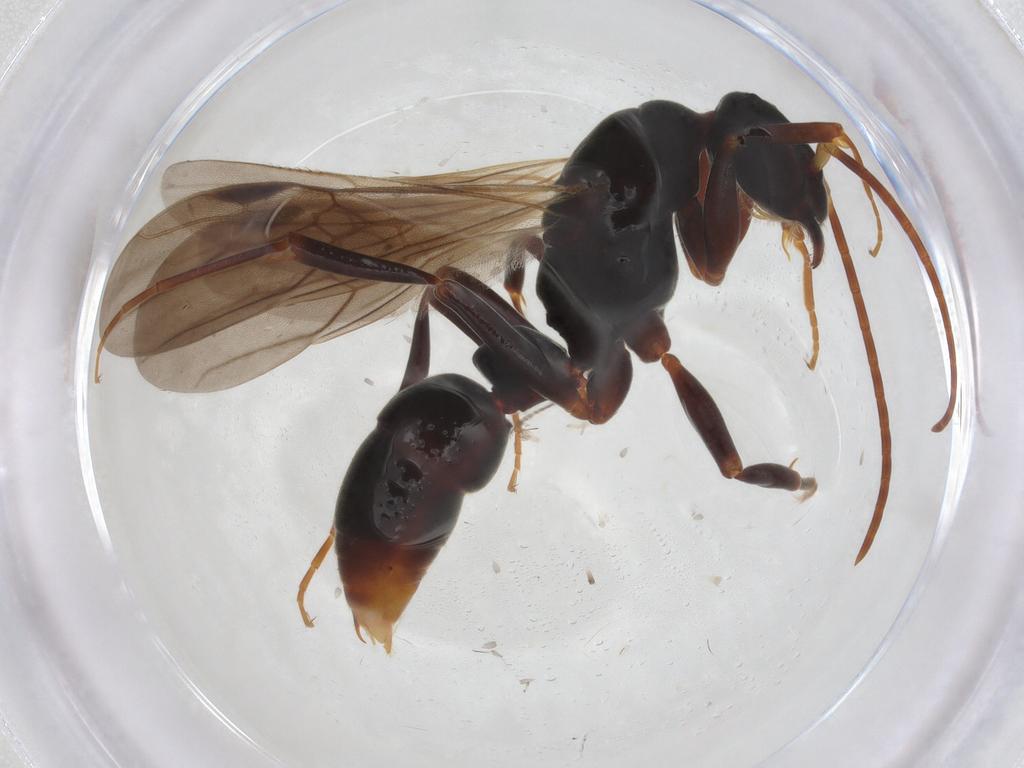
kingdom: Animalia
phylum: Arthropoda
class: Insecta
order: Hymenoptera
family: Formicidae
